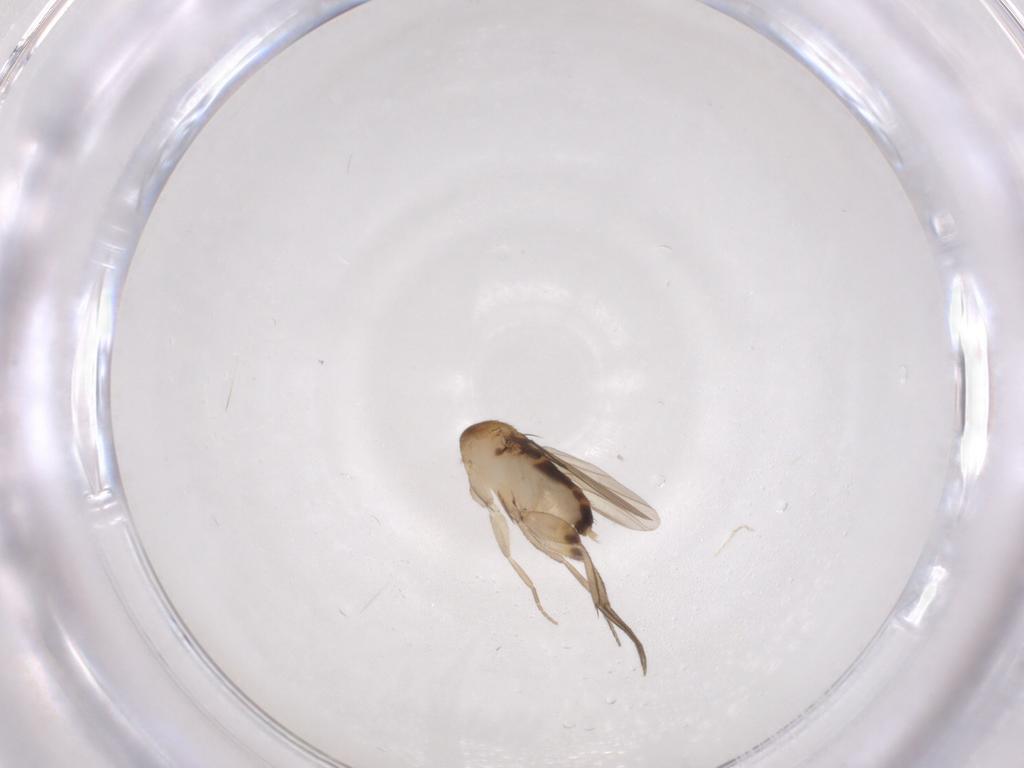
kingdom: Animalia
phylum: Arthropoda
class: Insecta
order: Diptera
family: Phoridae
